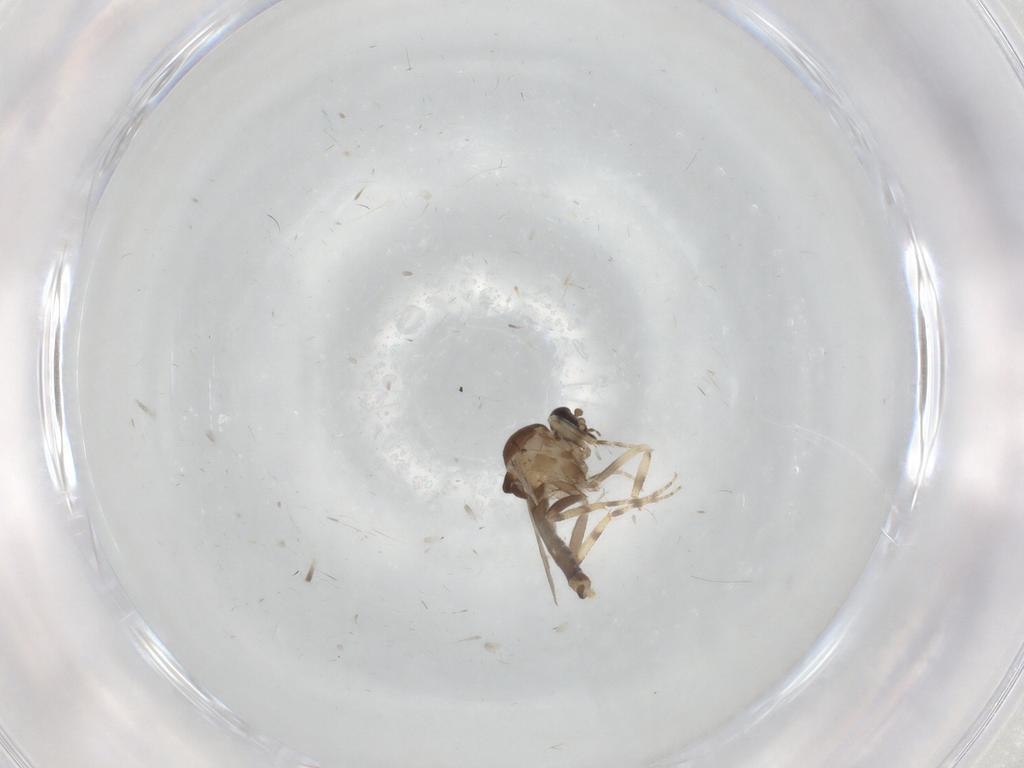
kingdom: Animalia
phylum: Arthropoda
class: Insecta
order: Diptera
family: Ceratopogonidae
